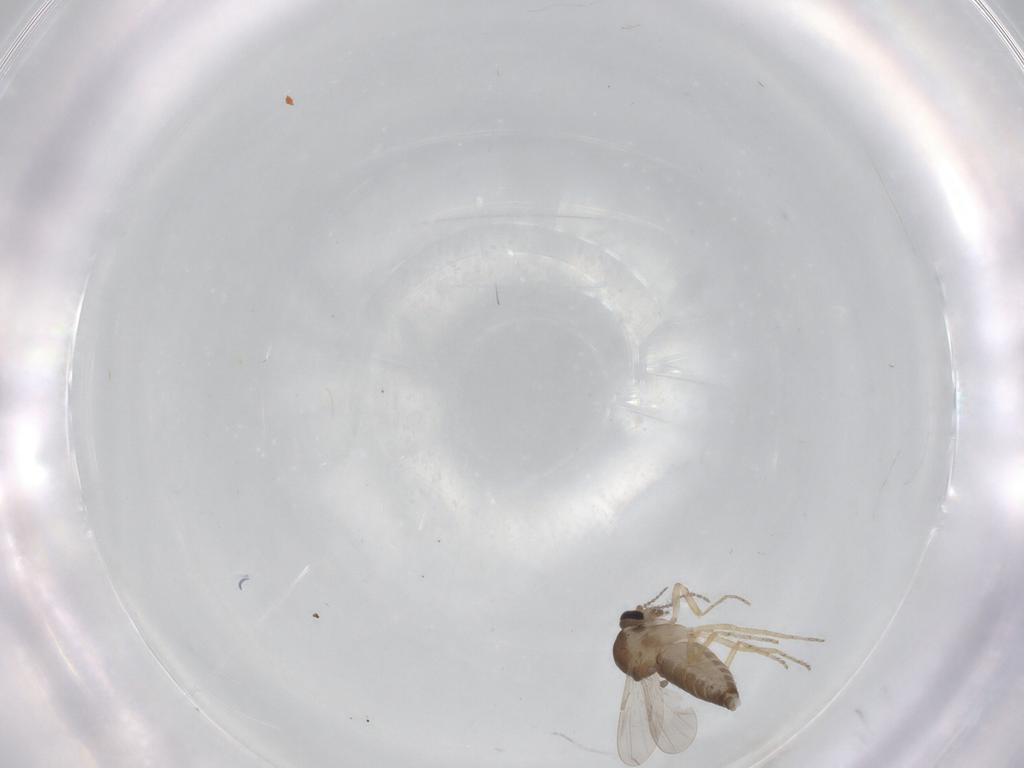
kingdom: Animalia
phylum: Arthropoda
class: Insecta
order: Diptera
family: Ceratopogonidae
